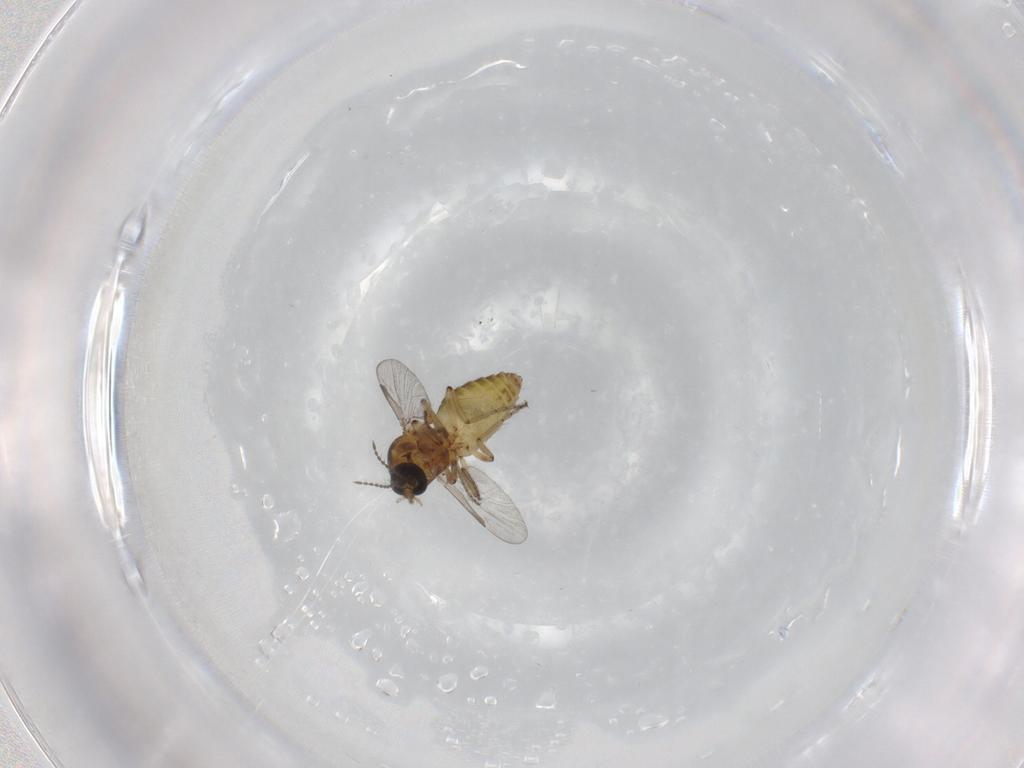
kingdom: Animalia
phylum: Arthropoda
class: Insecta
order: Diptera
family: Ceratopogonidae
